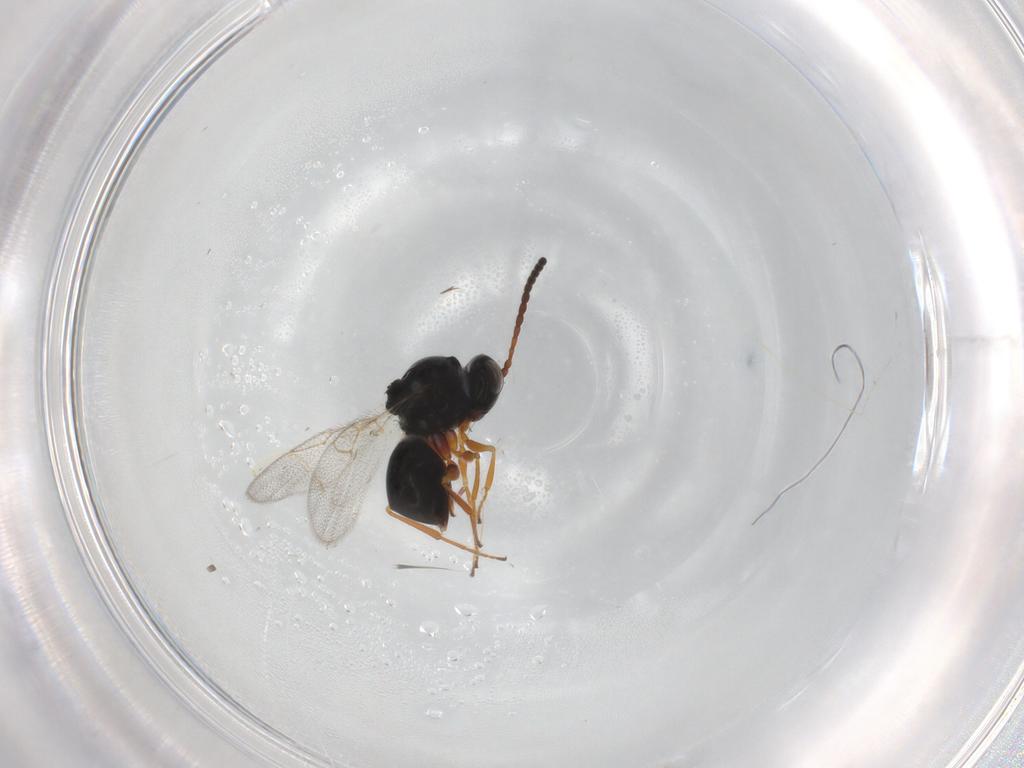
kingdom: Animalia
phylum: Arthropoda
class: Insecta
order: Hymenoptera
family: Figitidae
